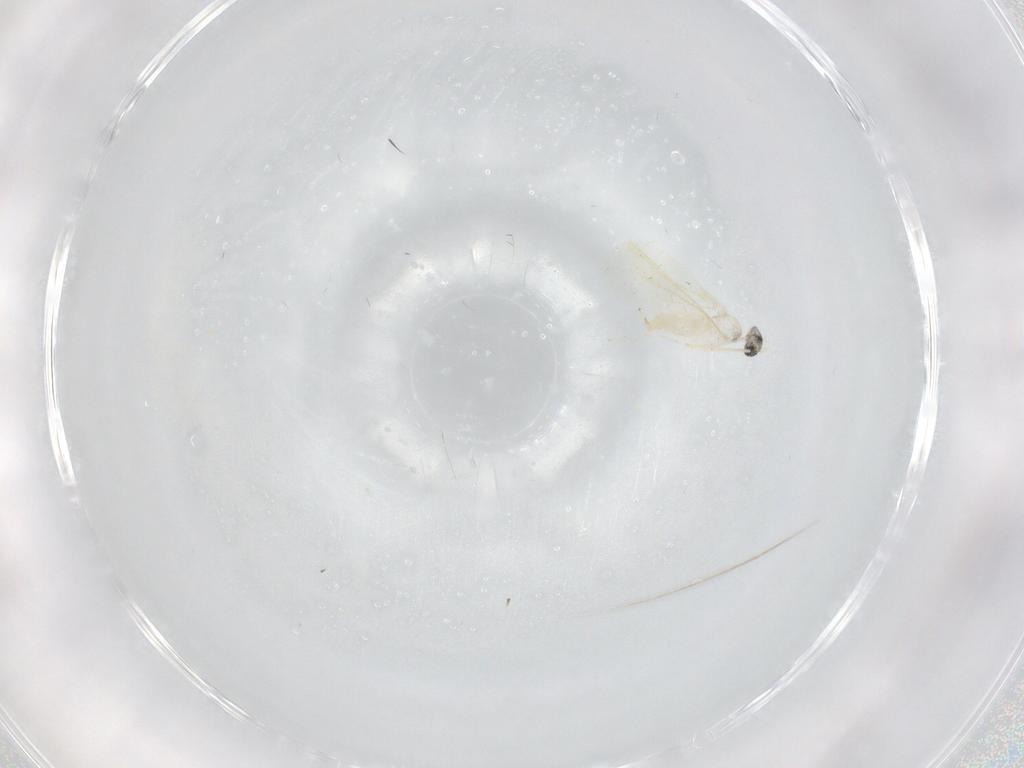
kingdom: Animalia
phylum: Arthropoda
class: Insecta
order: Diptera
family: Cecidomyiidae
